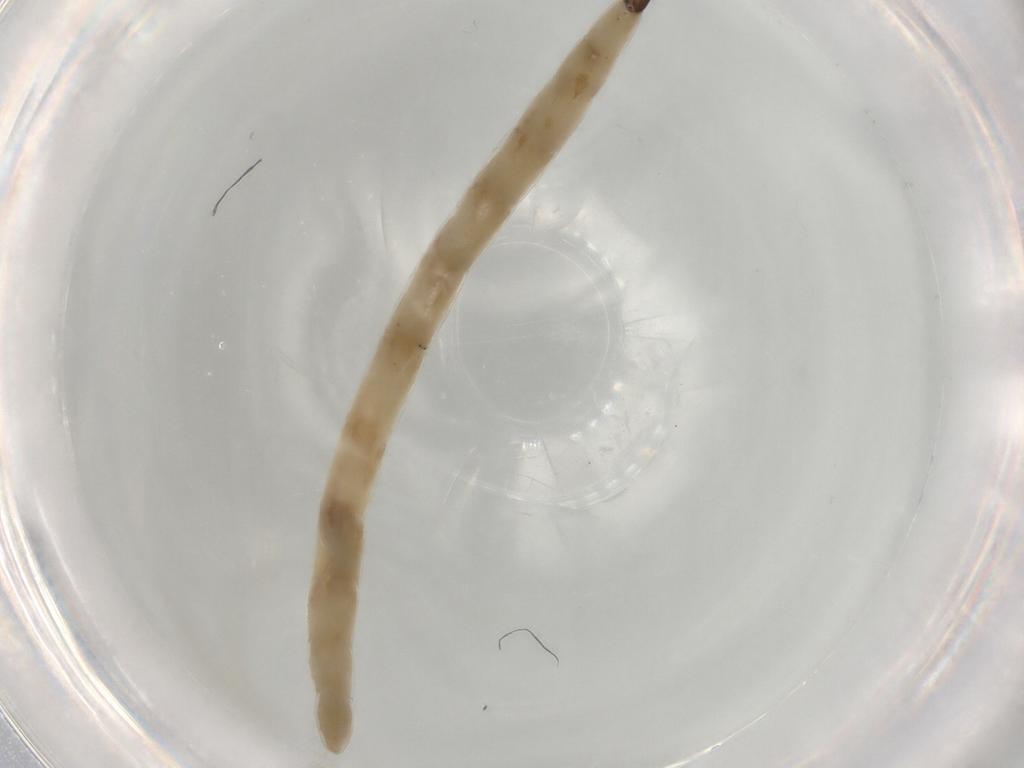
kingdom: Animalia
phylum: Arthropoda
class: Insecta
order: Diptera
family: Ceratopogonidae
